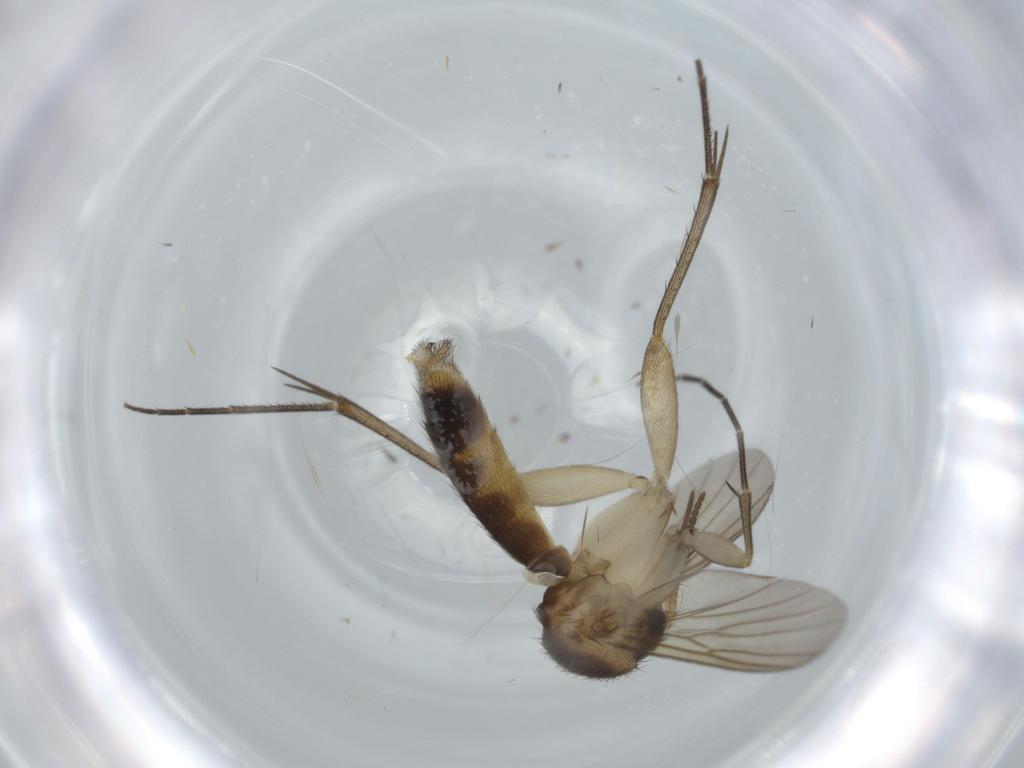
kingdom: Animalia
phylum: Arthropoda
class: Insecta
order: Diptera
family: Mycetophilidae
